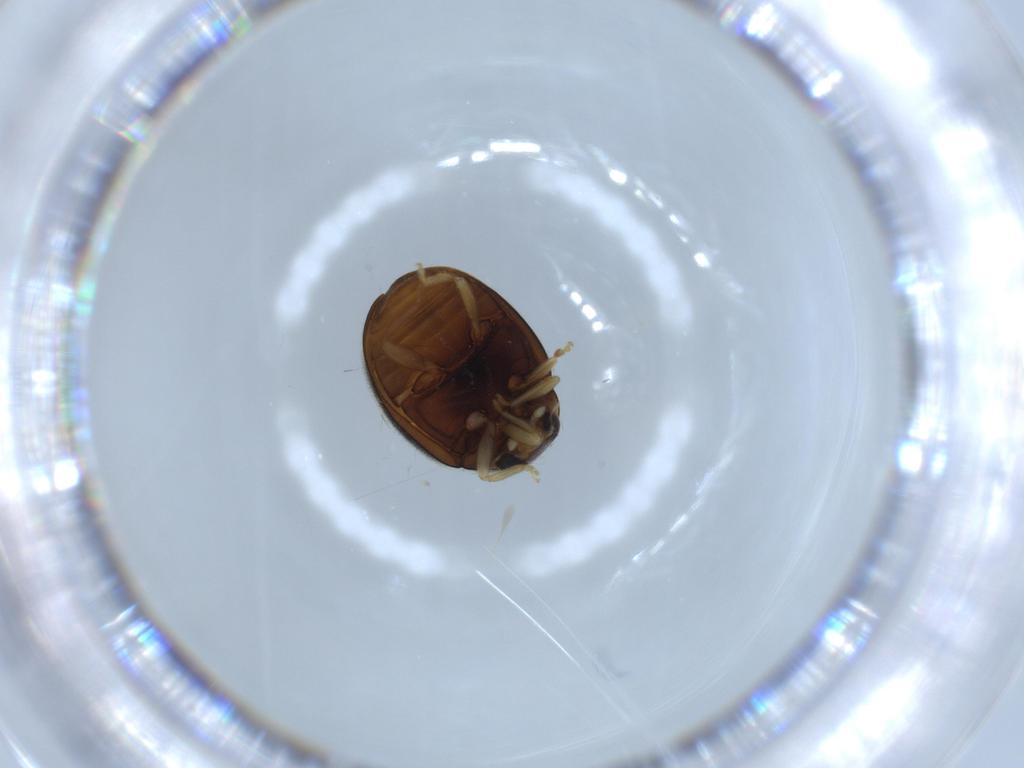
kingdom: Animalia
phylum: Arthropoda
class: Insecta
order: Coleoptera
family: Coccinellidae
